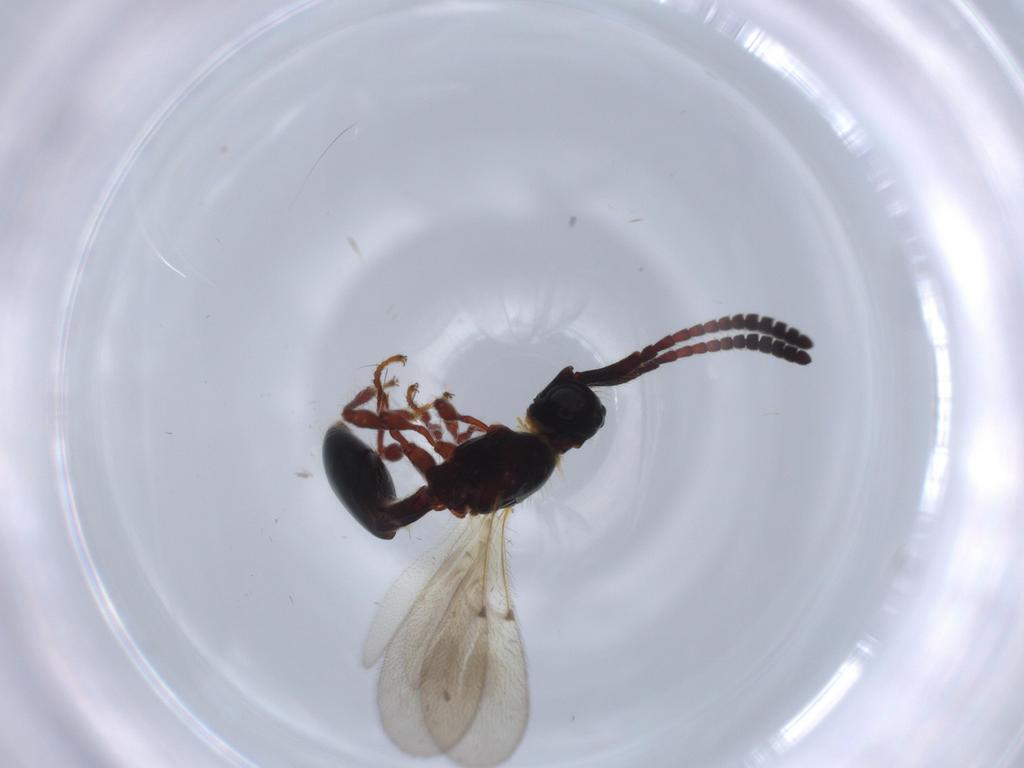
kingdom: Animalia
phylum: Arthropoda
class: Insecta
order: Hymenoptera
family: Diapriidae
